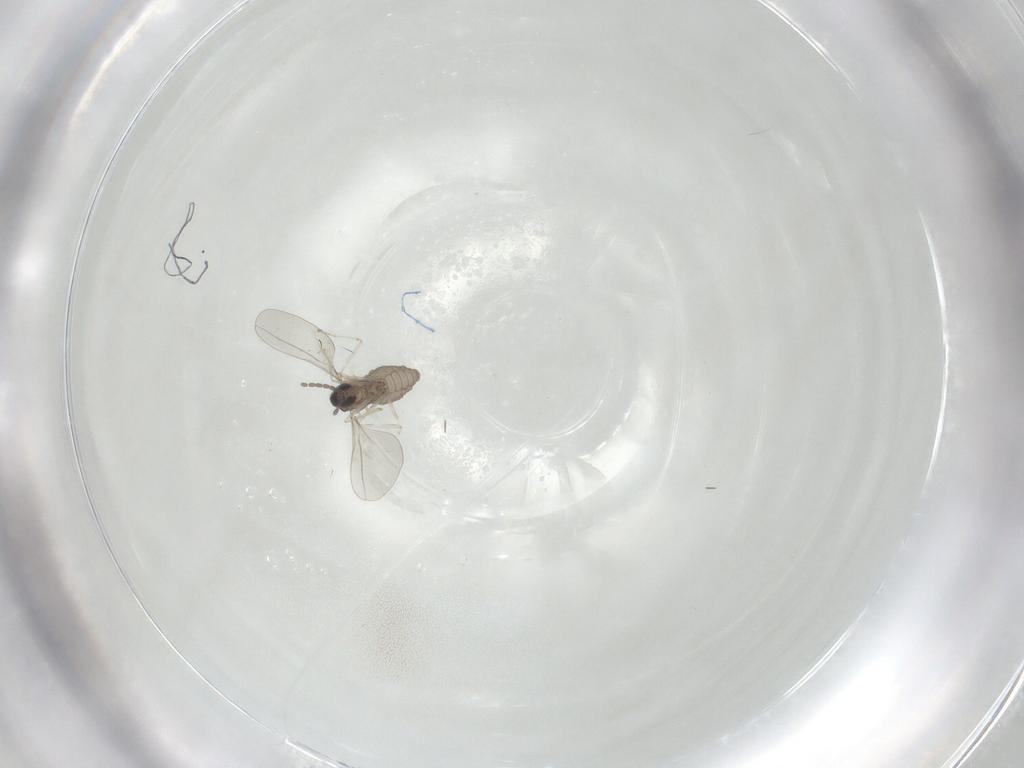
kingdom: Animalia
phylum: Arthropoda
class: Insecta
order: Diptera
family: Cecidomyiidae
